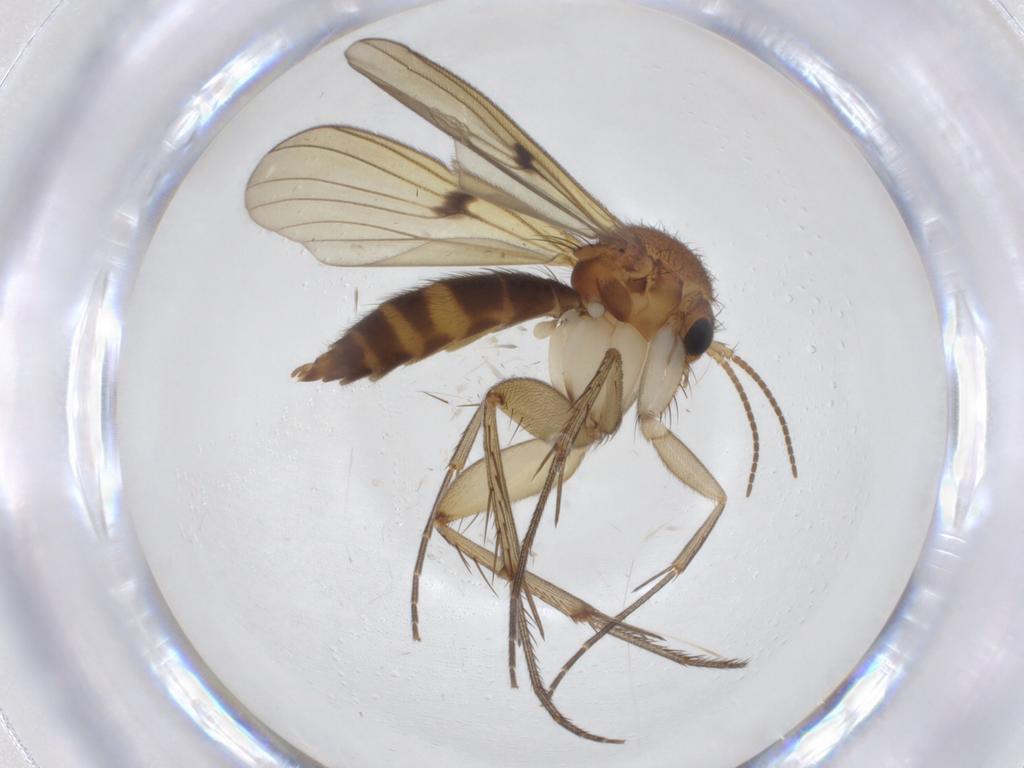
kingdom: Animalia
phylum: Arthropoda
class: Insecta
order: Diptera
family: Mycetophilidae
